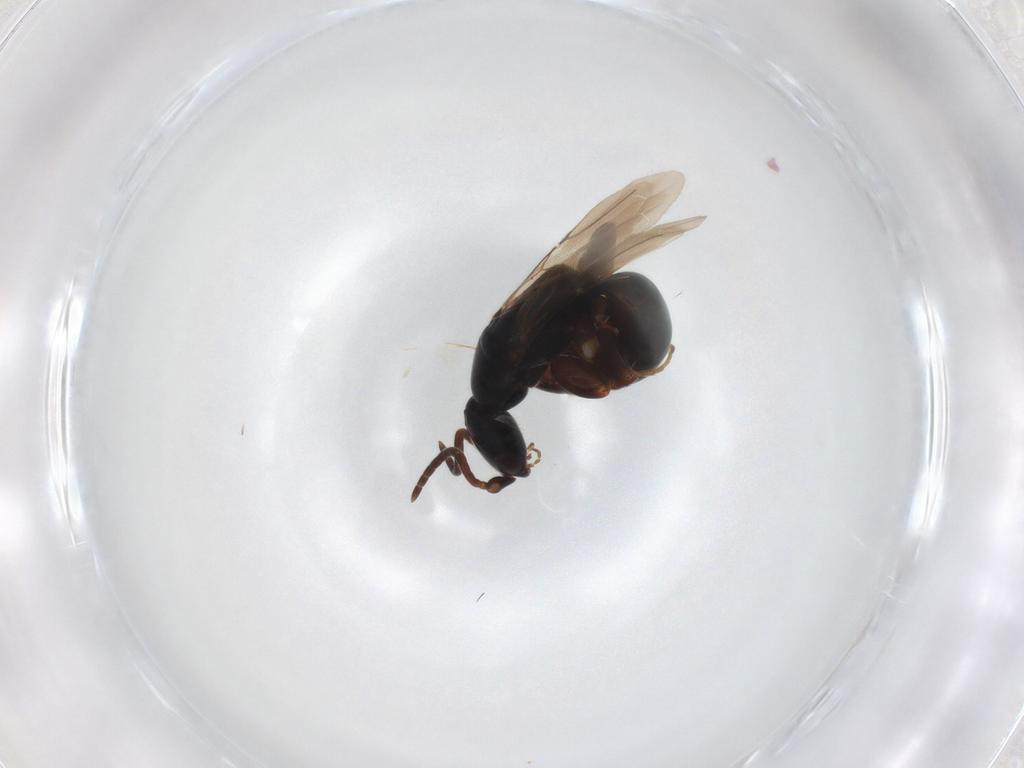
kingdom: Animalia
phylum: Arthropoda
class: Insecta
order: Hymenoptera
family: Bethylidae
